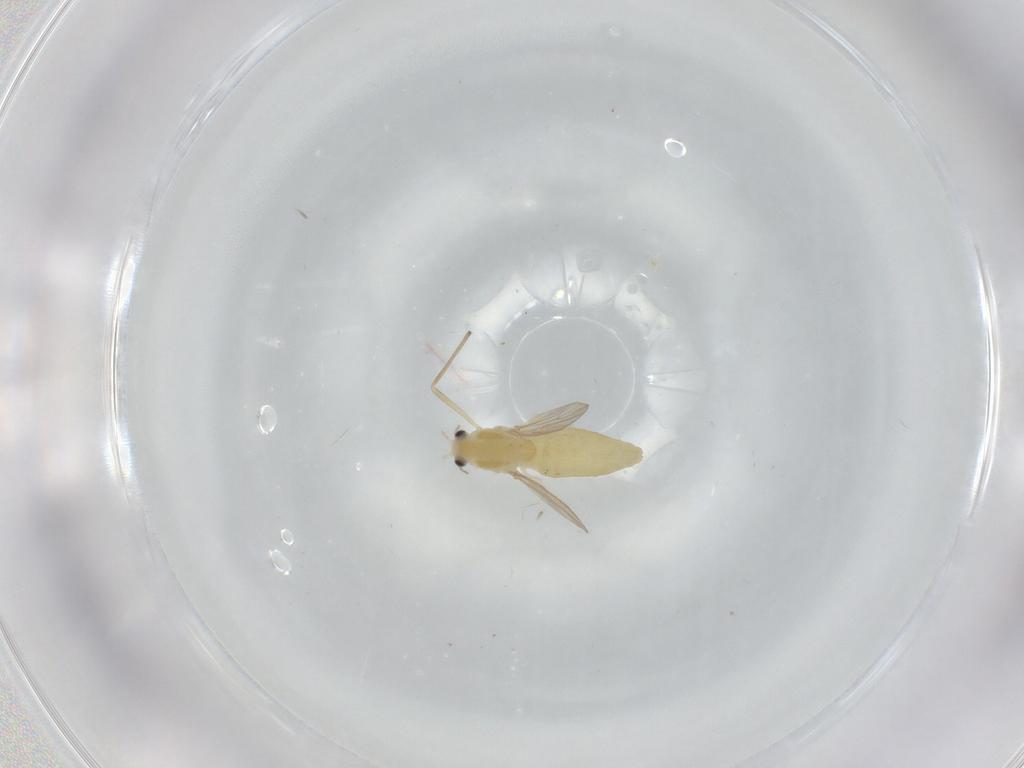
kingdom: Animalia
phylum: Arthropoda
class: Insecta
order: Diptera
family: Chironomidae
